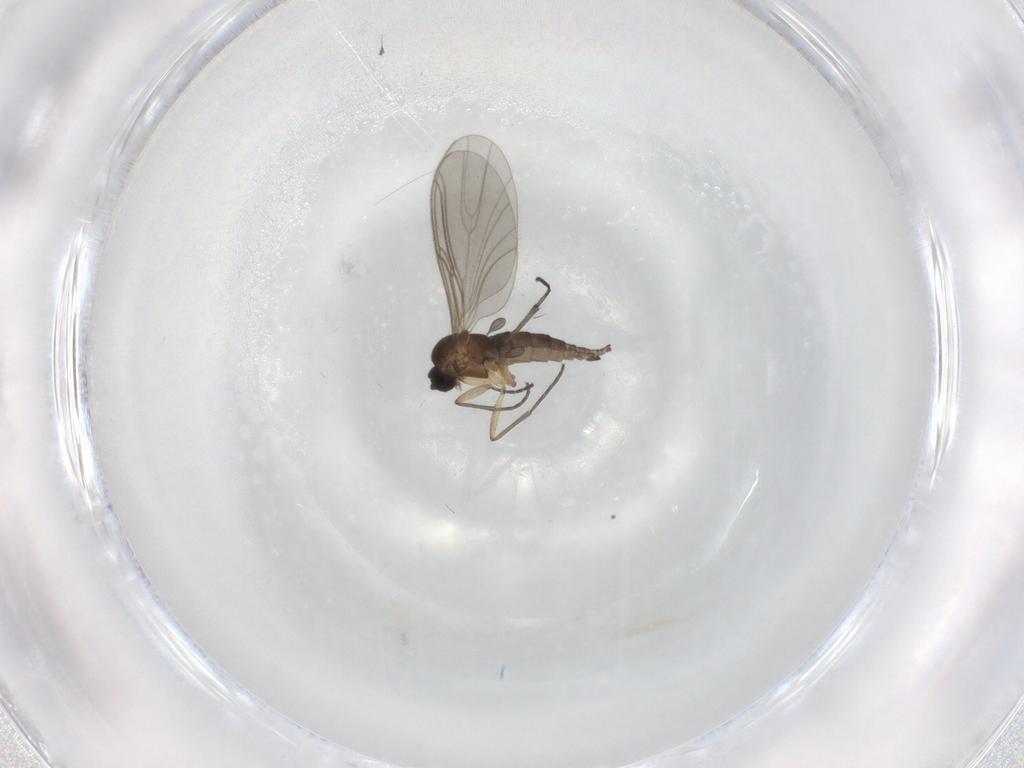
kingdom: Animalia
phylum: Arthropoda
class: Insecta
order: Diptera
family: Sciaridae
